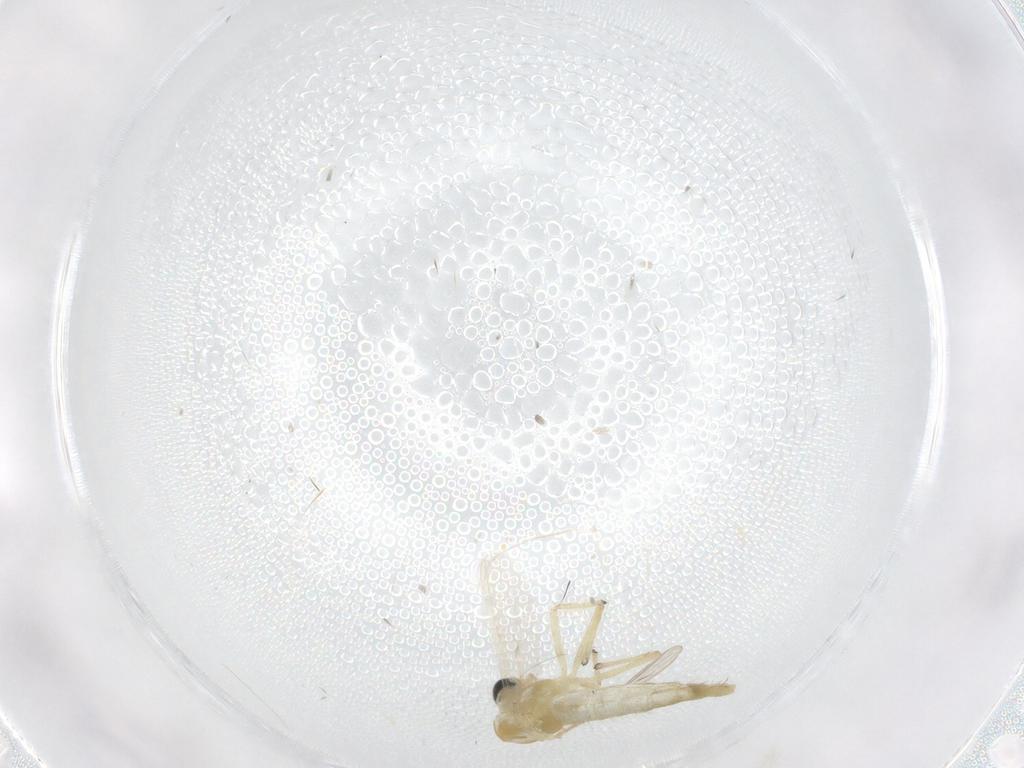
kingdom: Animalia
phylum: Arthropoda
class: Insecta
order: Diptera
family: Chironomidae
